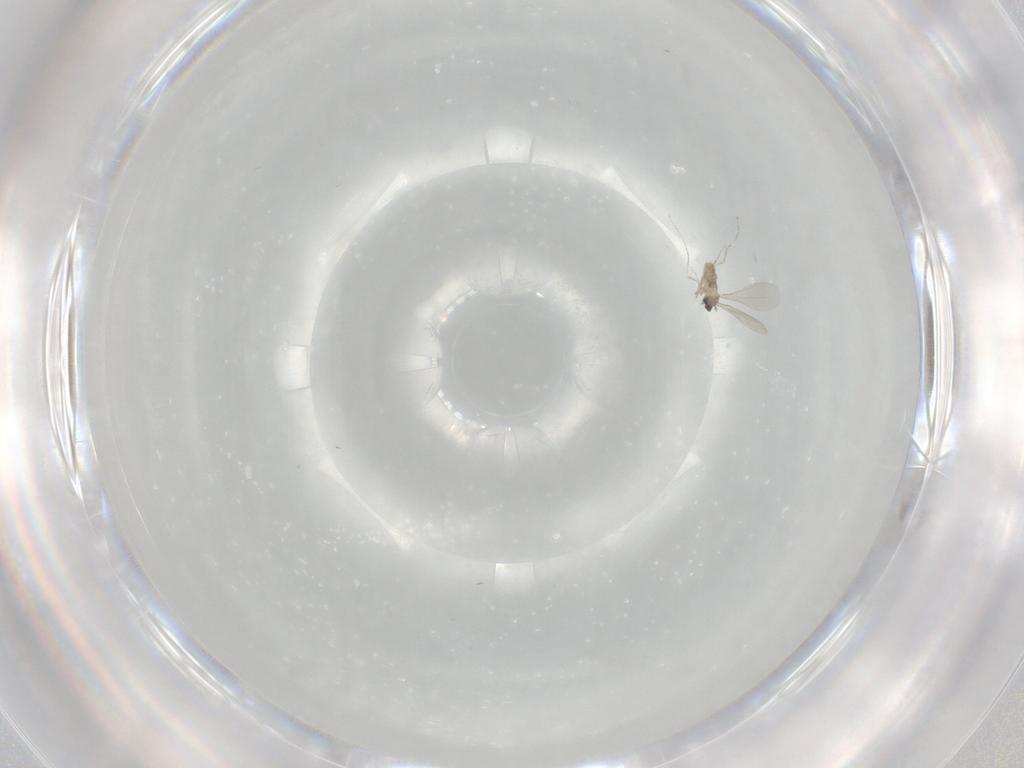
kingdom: Animalia
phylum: Arthropoda
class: Insecta
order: Diptera
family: Cecidomyiidae
